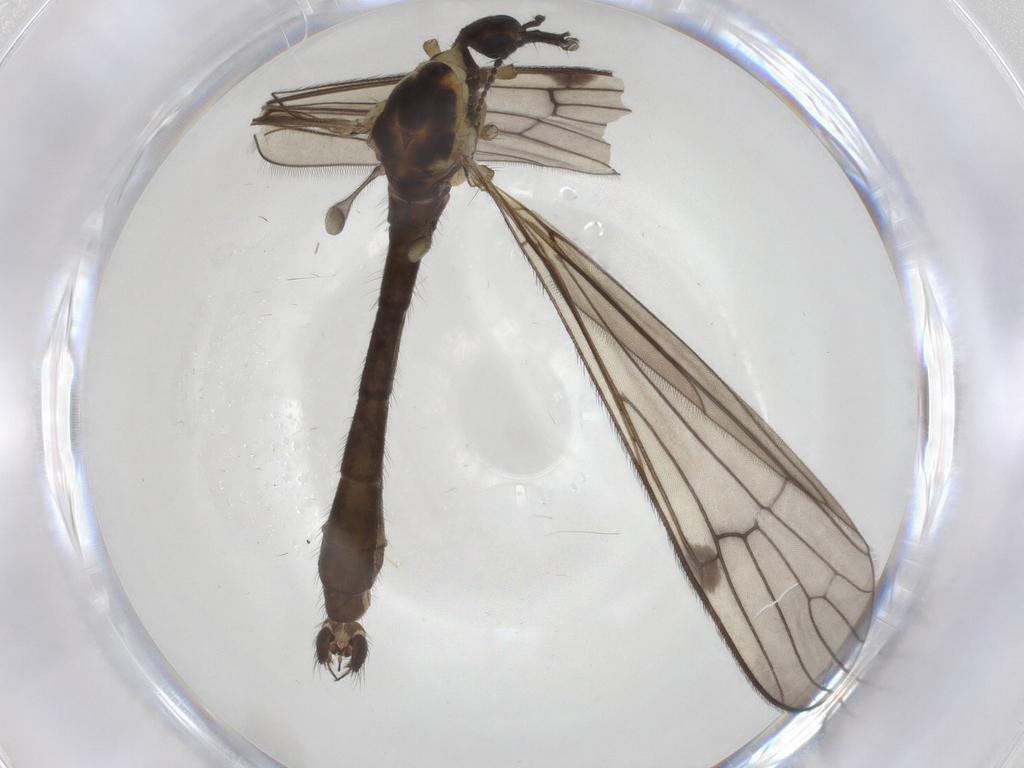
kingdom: Animalia
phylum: Arthropoda
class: Insecta
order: Diptera
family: Limoniidae
